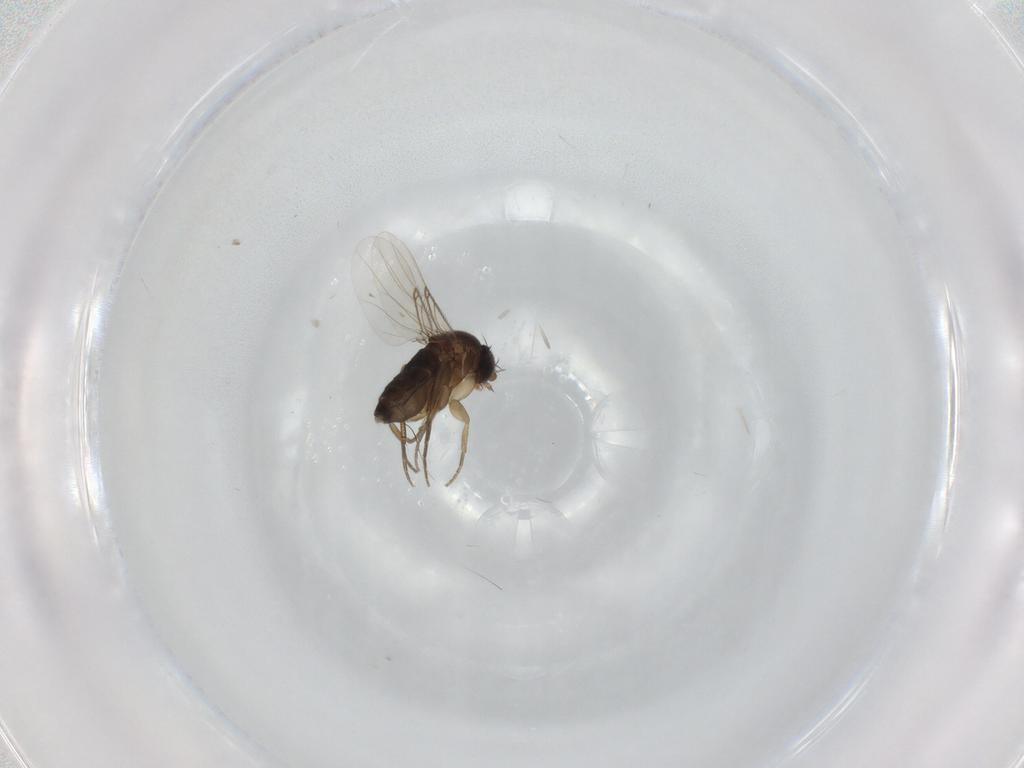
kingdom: Animalia
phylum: Arthropoda
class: Insecta
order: Diptera
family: Phoridae
